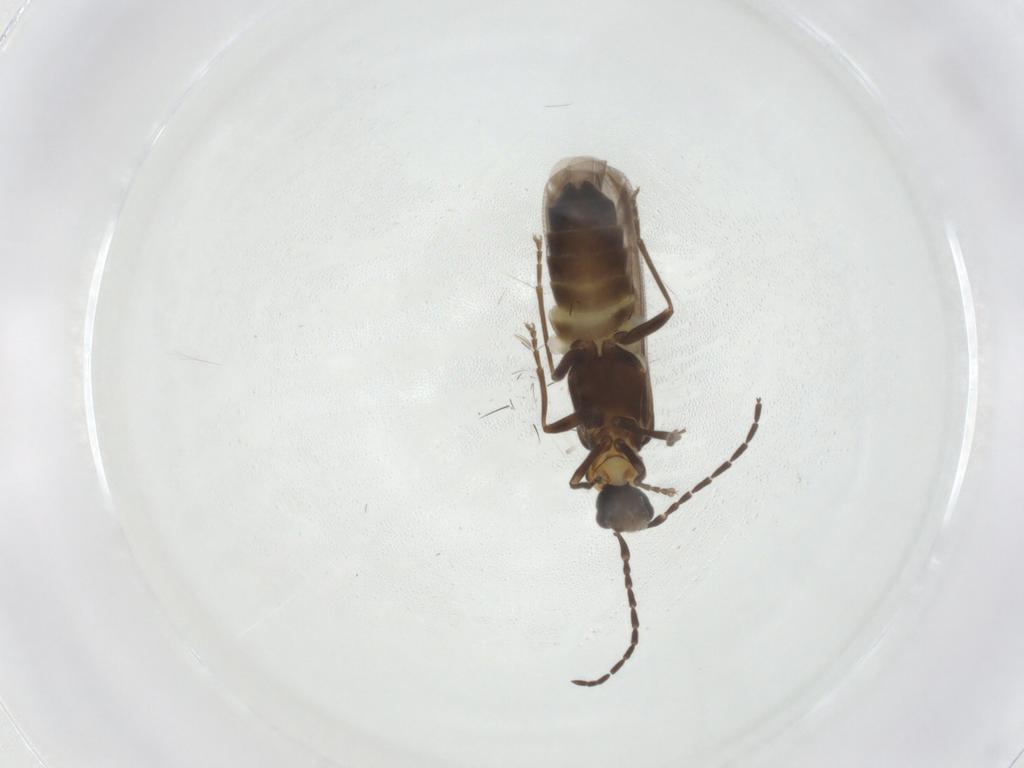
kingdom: Animalia
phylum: Arthropoda
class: Insecta
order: Coleoptera
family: Cantharidae
